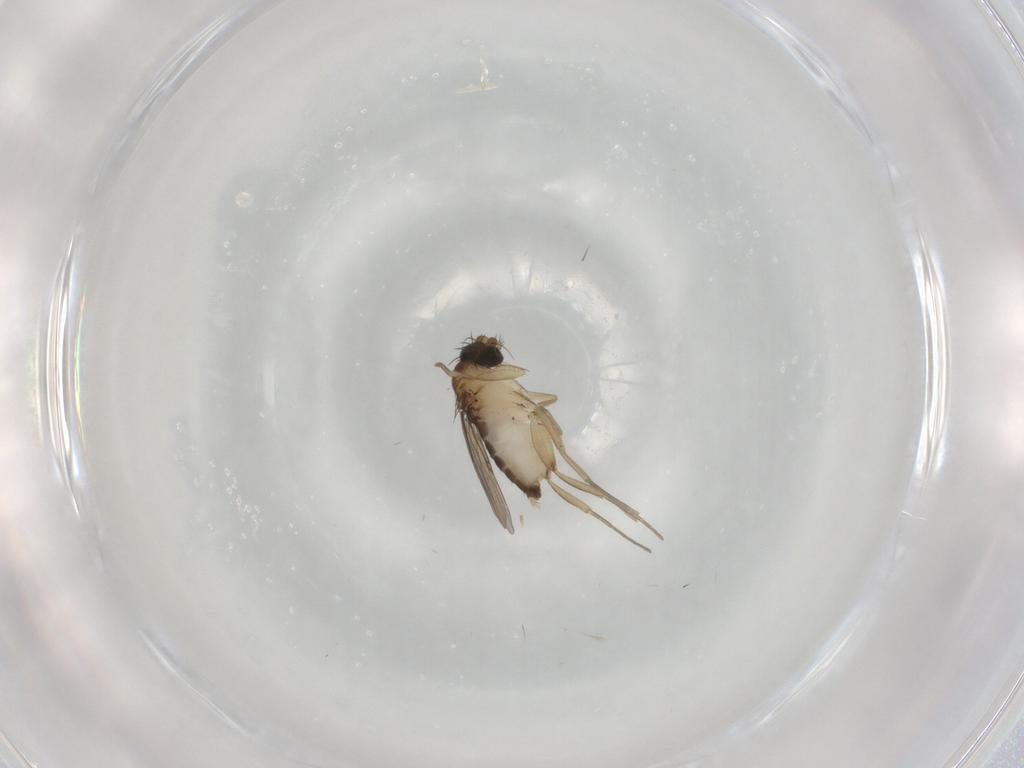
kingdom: Animalia
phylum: Arthropoda
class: Insecta
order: Diptera
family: Phoridae
